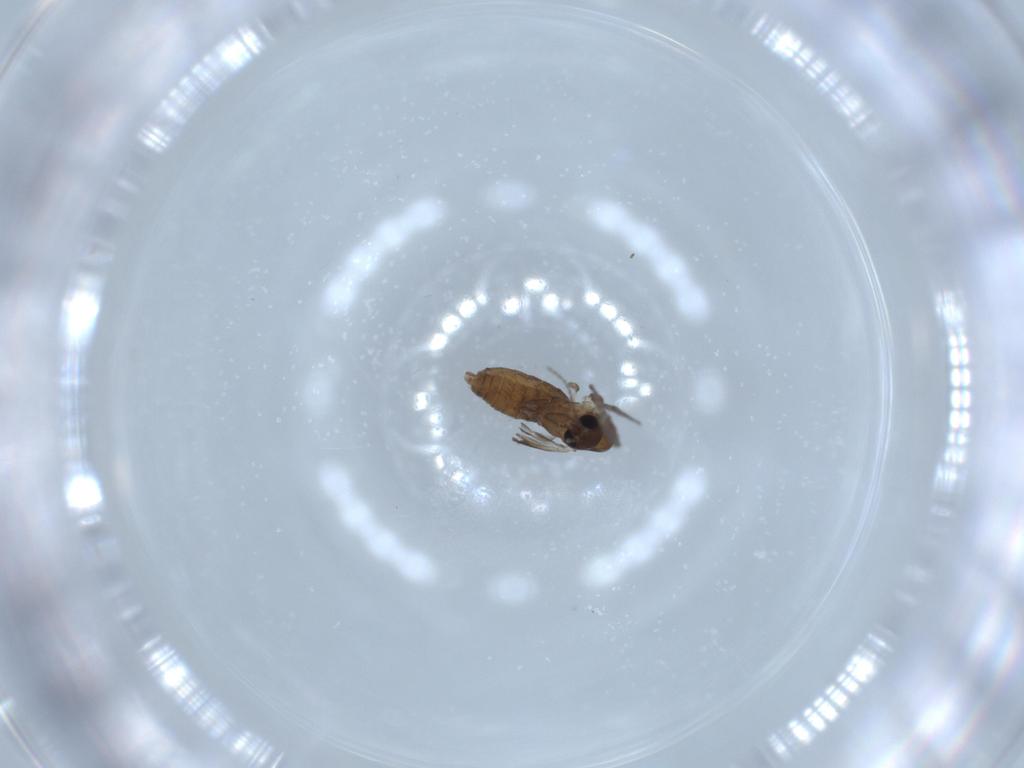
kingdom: Animalia
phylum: Arthropoda
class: Insecta
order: Diptera
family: Psychodidae
